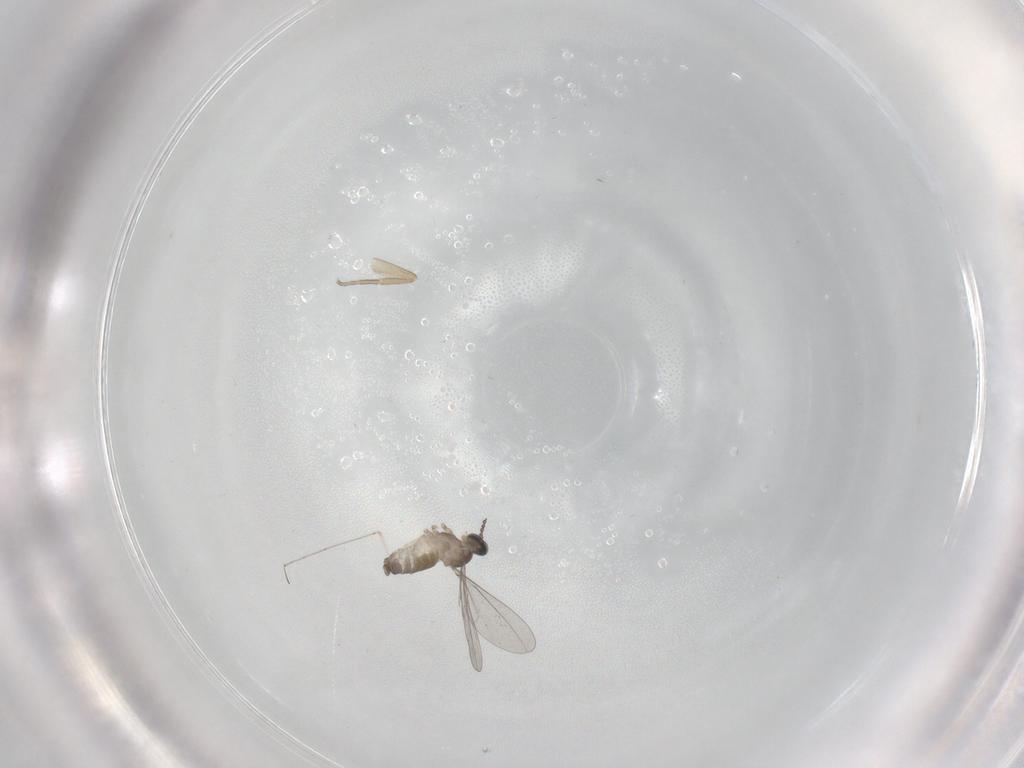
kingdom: Animalia
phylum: Arthropoda
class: Insecta
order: Diptera
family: Cecidomyiidae
